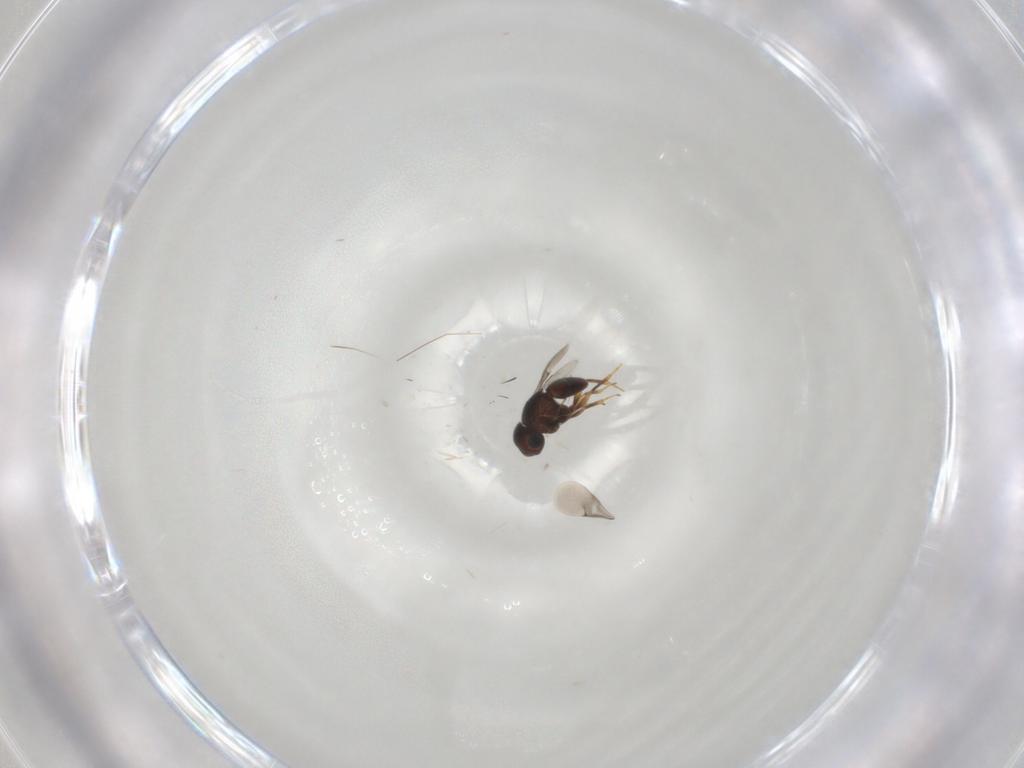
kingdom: Animalia
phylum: Arthropoda
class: Insecta
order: Hymenoptera
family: Scelionidae
